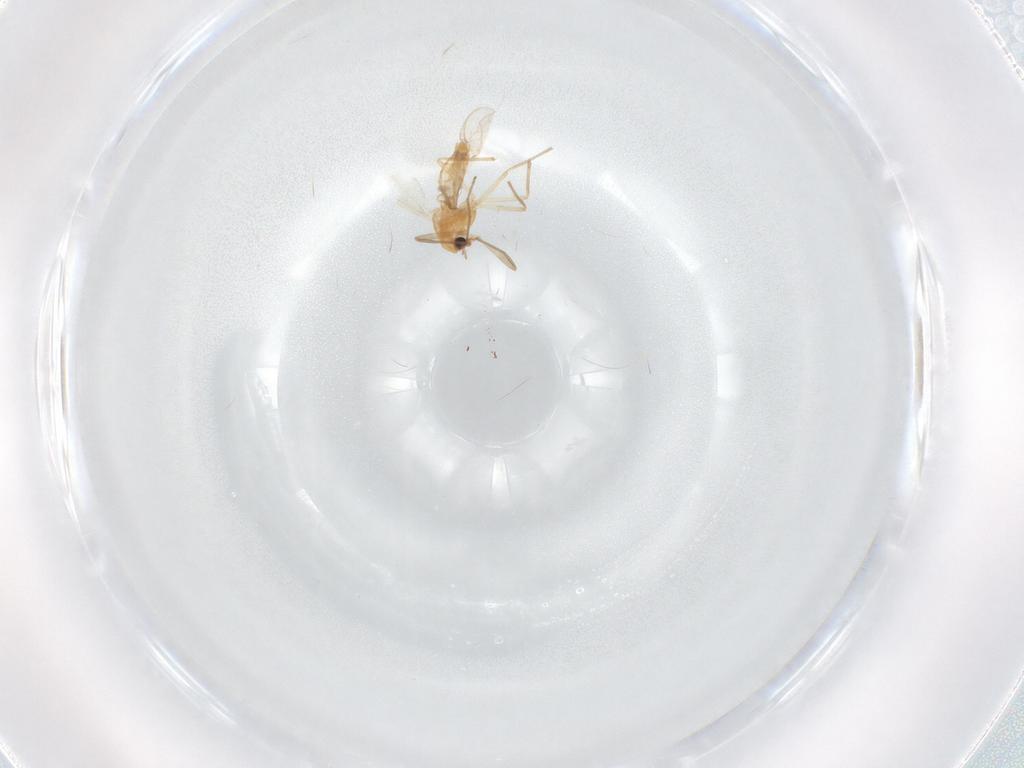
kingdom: Animalia
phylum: Arthropoda
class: Insecta
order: Diptera
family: Chironomidae
